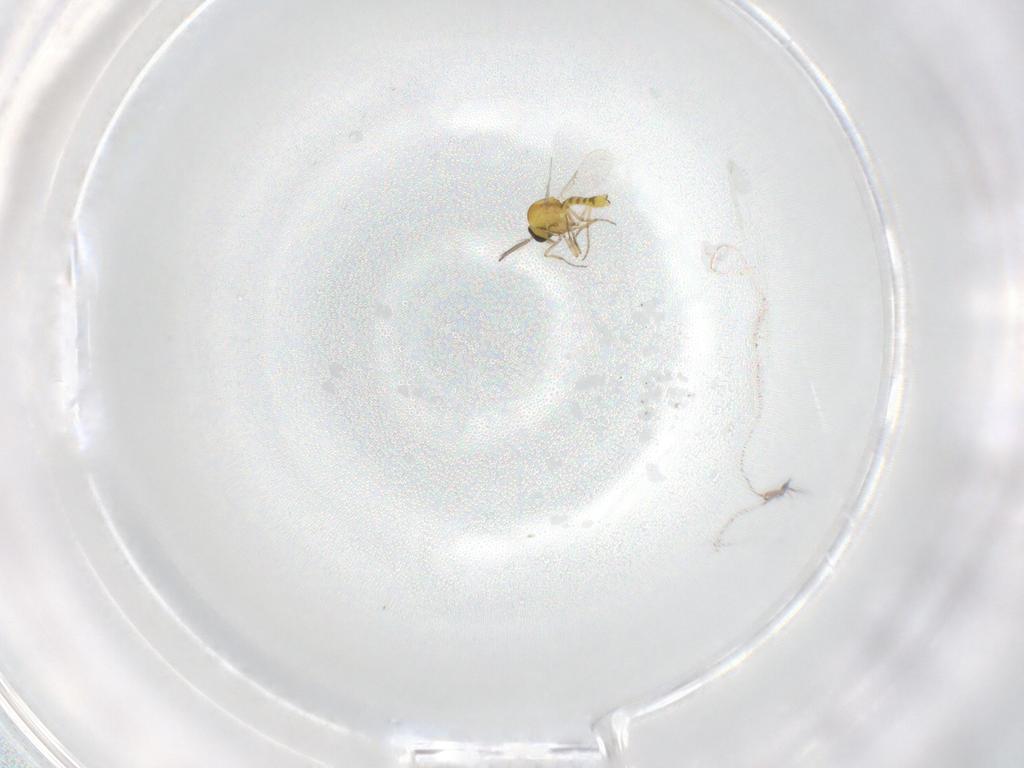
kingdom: Animalia
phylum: Arthropoda
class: Insecta
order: Diptera
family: Ceratopogonidae
